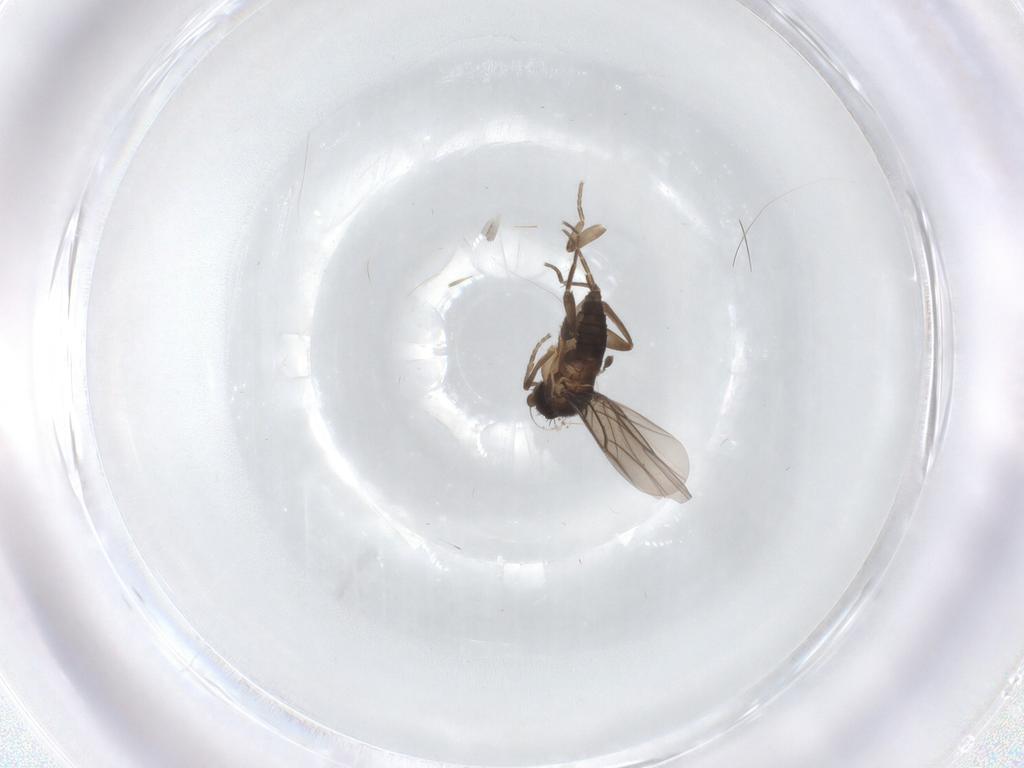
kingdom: Animalia
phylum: Arthropoda
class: Insecta
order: Diptera
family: Phoridae
